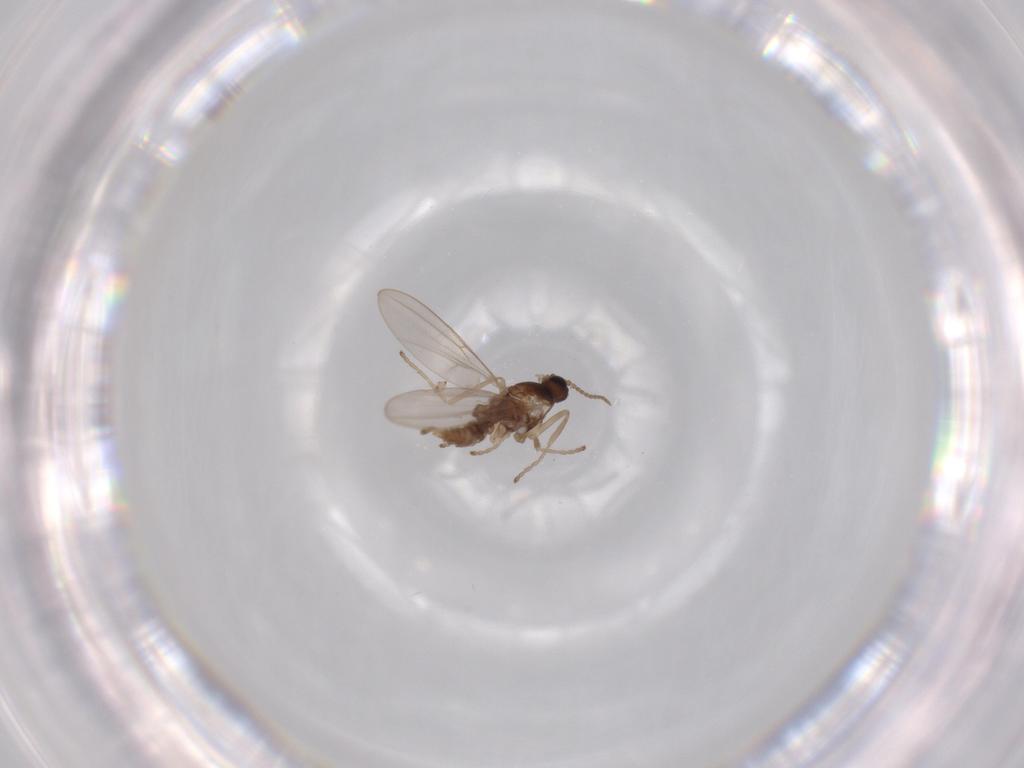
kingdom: Animalia
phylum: Arthropoda
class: Insecta
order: Diptera
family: Cecidomyiidae
